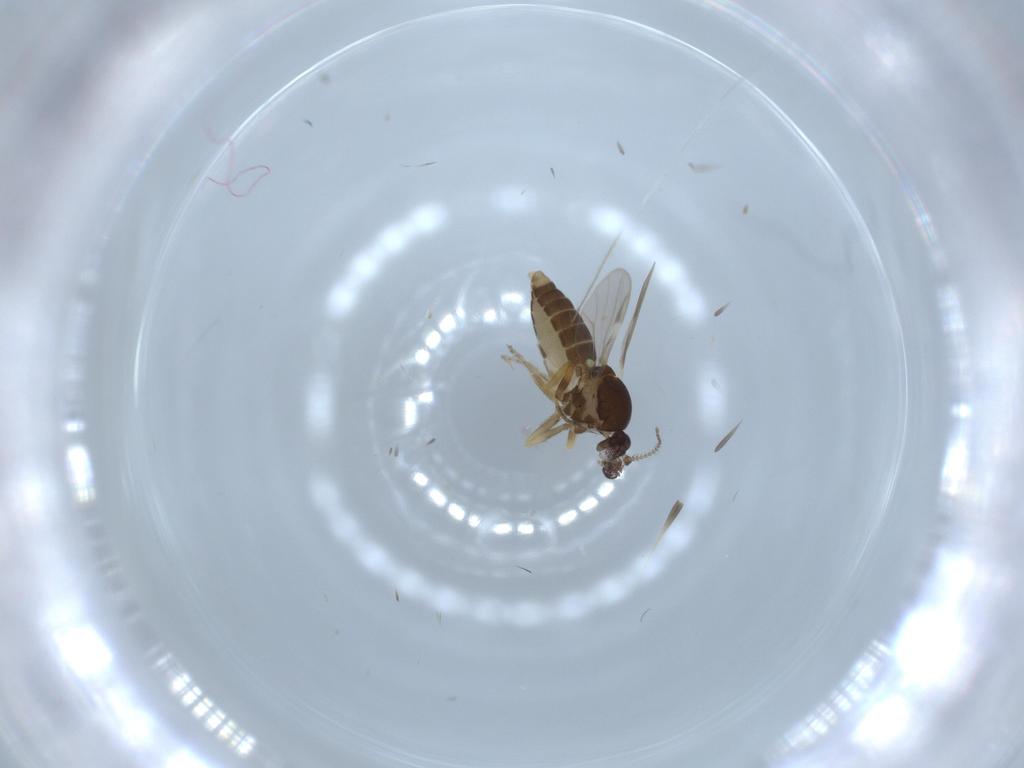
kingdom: Animalia
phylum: Arthropoda
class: Insecta
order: Diptera
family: Ceratopogonidae
